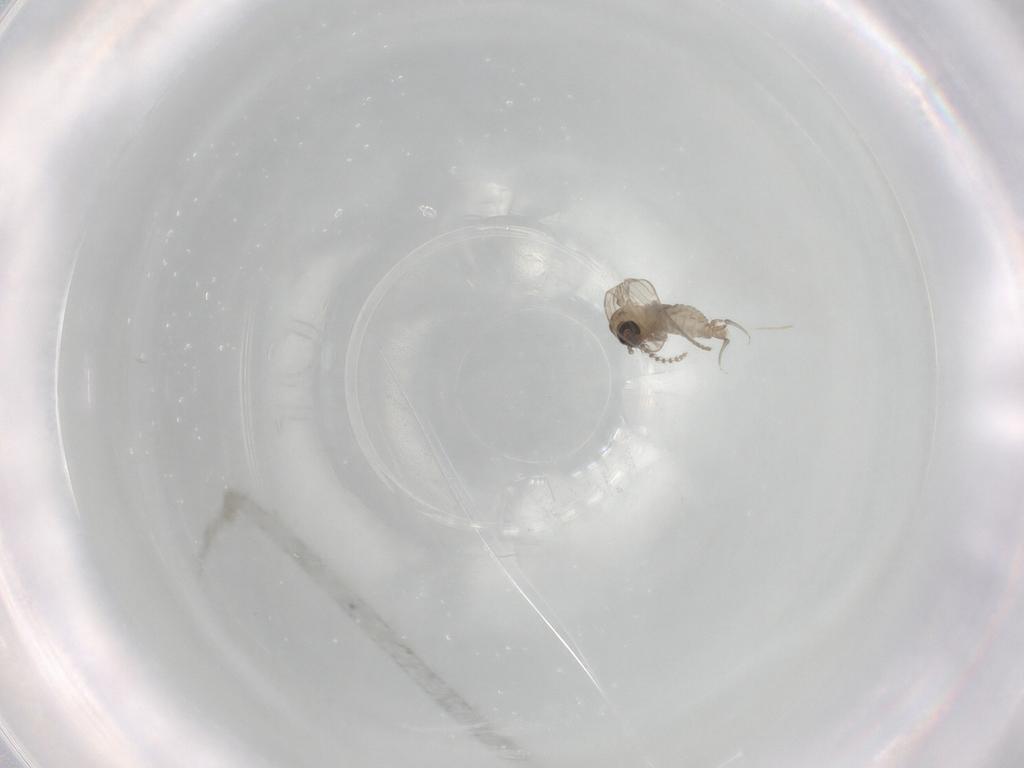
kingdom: Animalia
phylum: Arthropoda
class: Insecta
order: Diptera
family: Psychodidae
